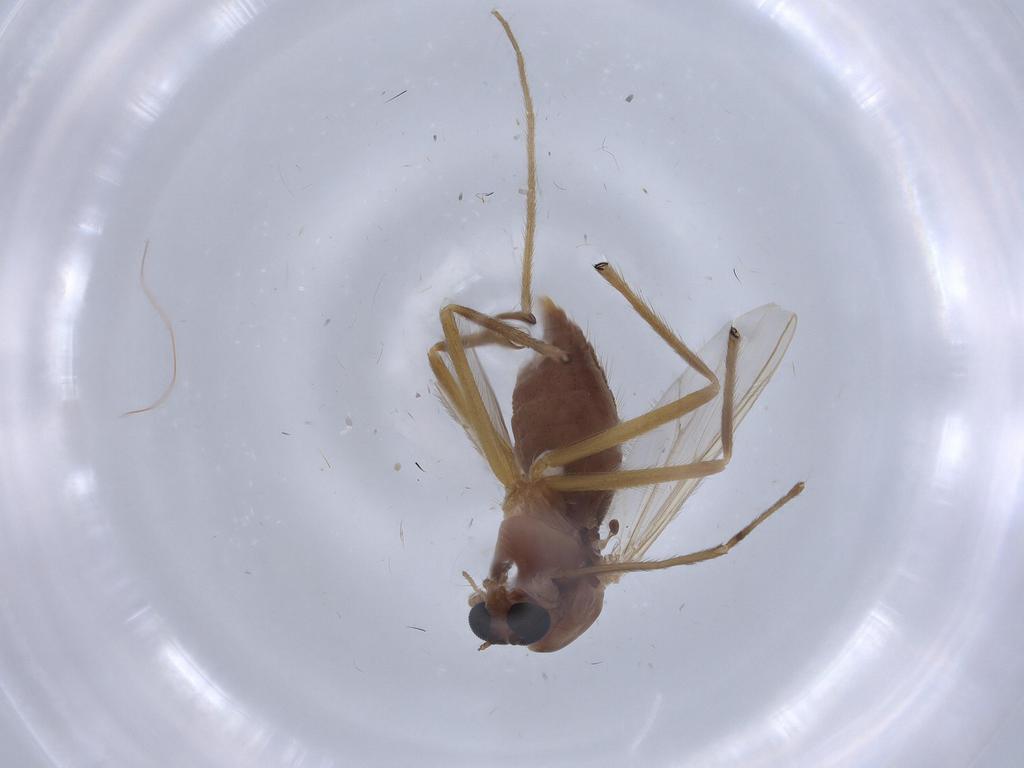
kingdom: Animalia
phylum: Arthropoda
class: Insecta
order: Diptera
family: Chironomidae
